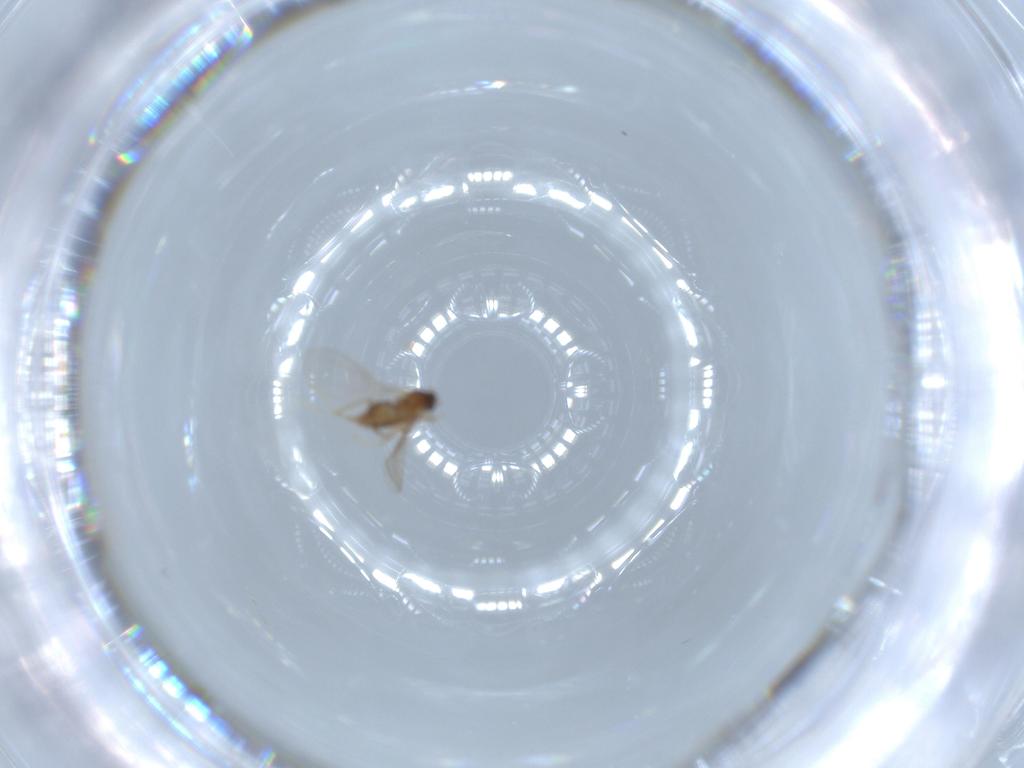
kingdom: Animalia
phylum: Arthropoda
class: Insecta
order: Diptera
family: Cecidomyiidae
